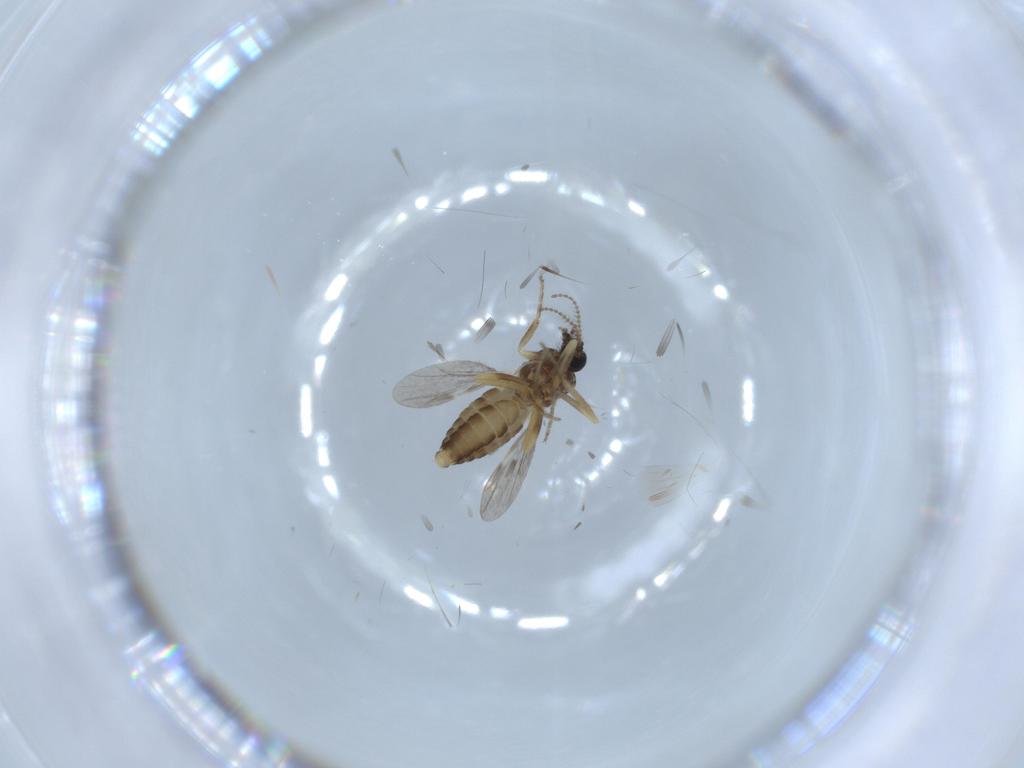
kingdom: Animalia
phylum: Arthropoda
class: Insecta
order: Diptera
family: Ceratopogonidae
